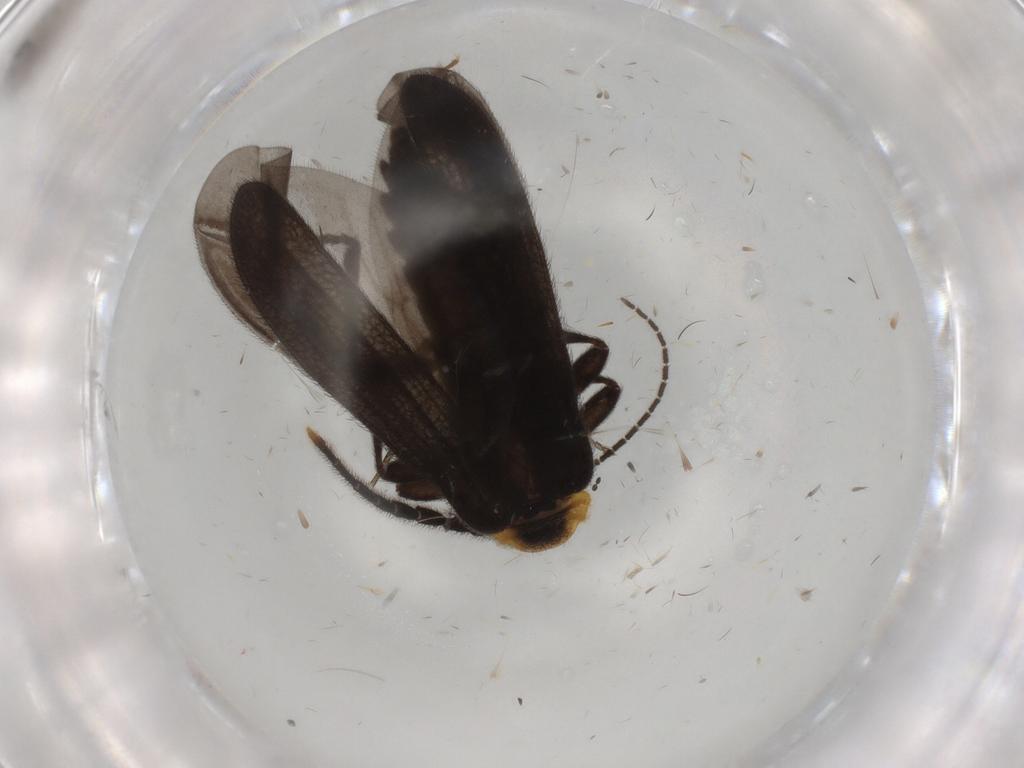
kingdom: Animalia
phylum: Arthropoda
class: Insecta
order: Coleoptera
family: Lycidae
